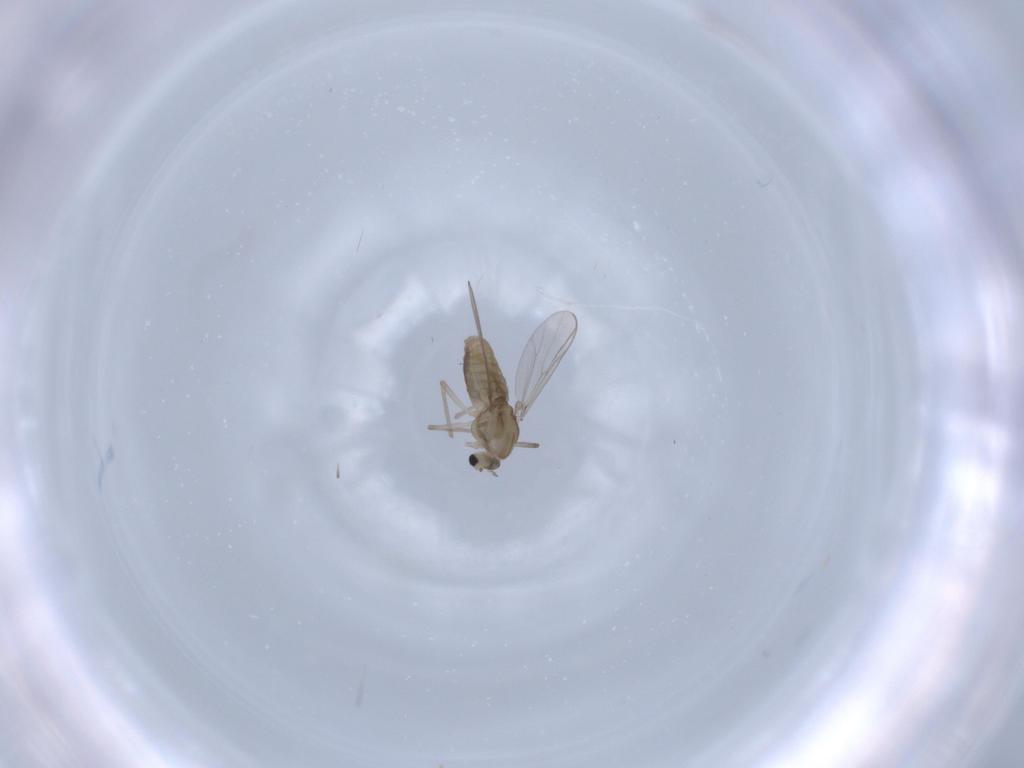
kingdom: Animalia
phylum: Arthropoda
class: Insecta
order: Diptera
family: Chironomidae
